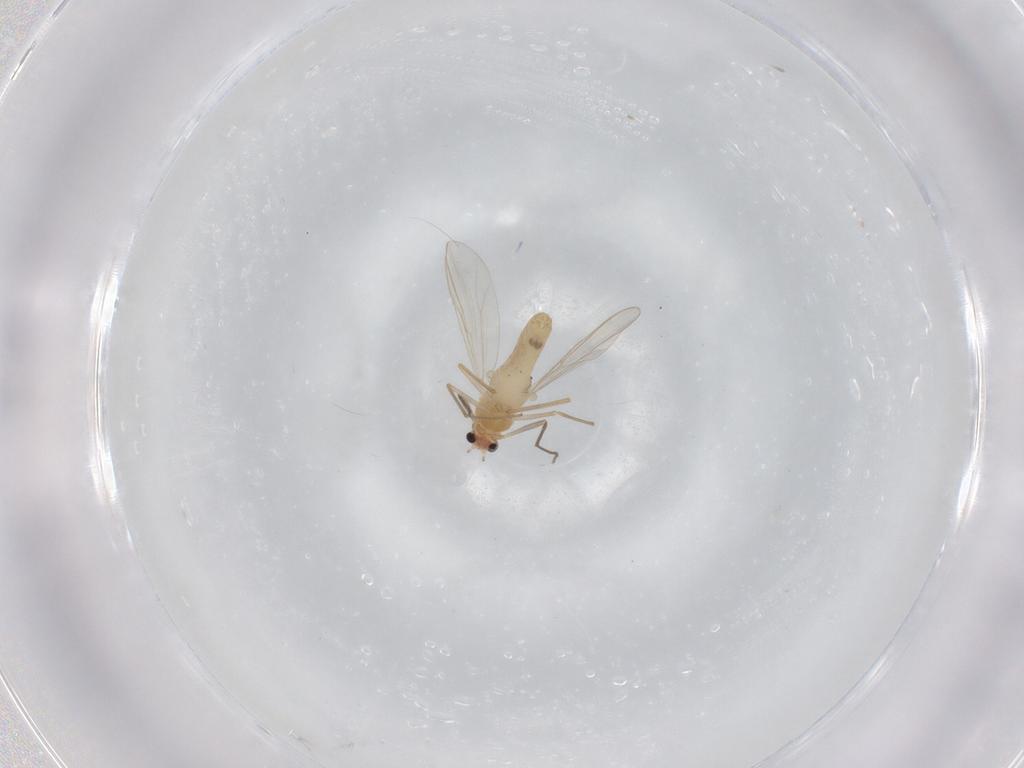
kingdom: Animalia
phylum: Arthropoda
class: Insecta
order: Diptera
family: Chironomidae
